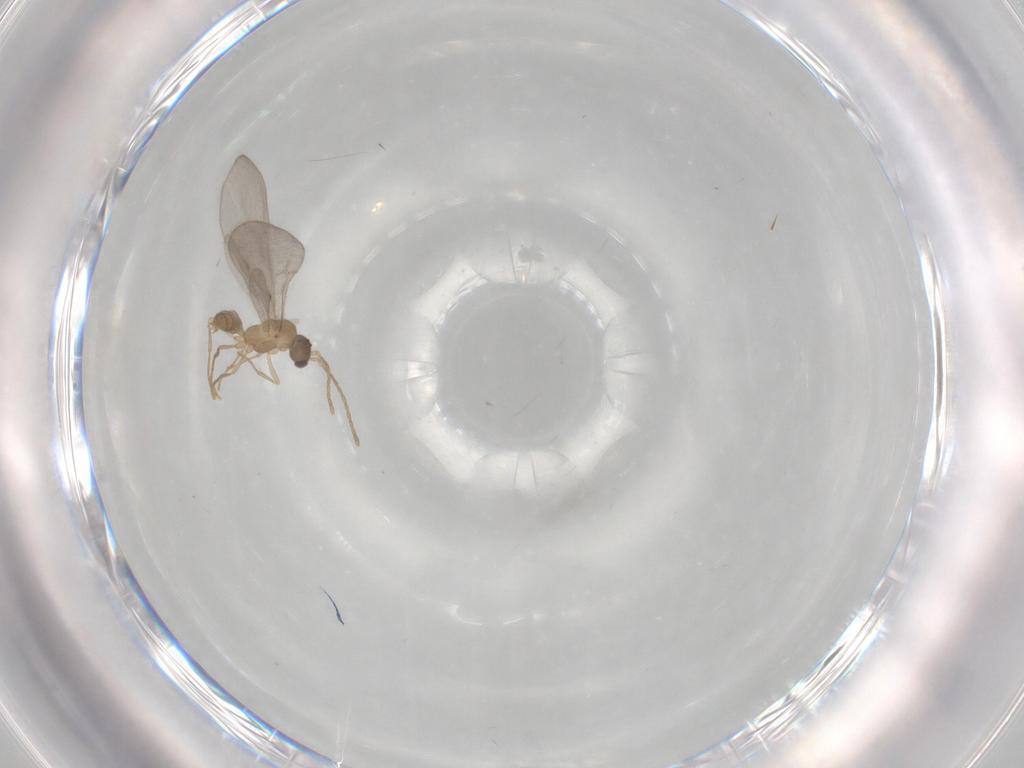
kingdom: Animalia
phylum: Arthropoda
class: Insecta
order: Hymenoptera
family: Formicidae
